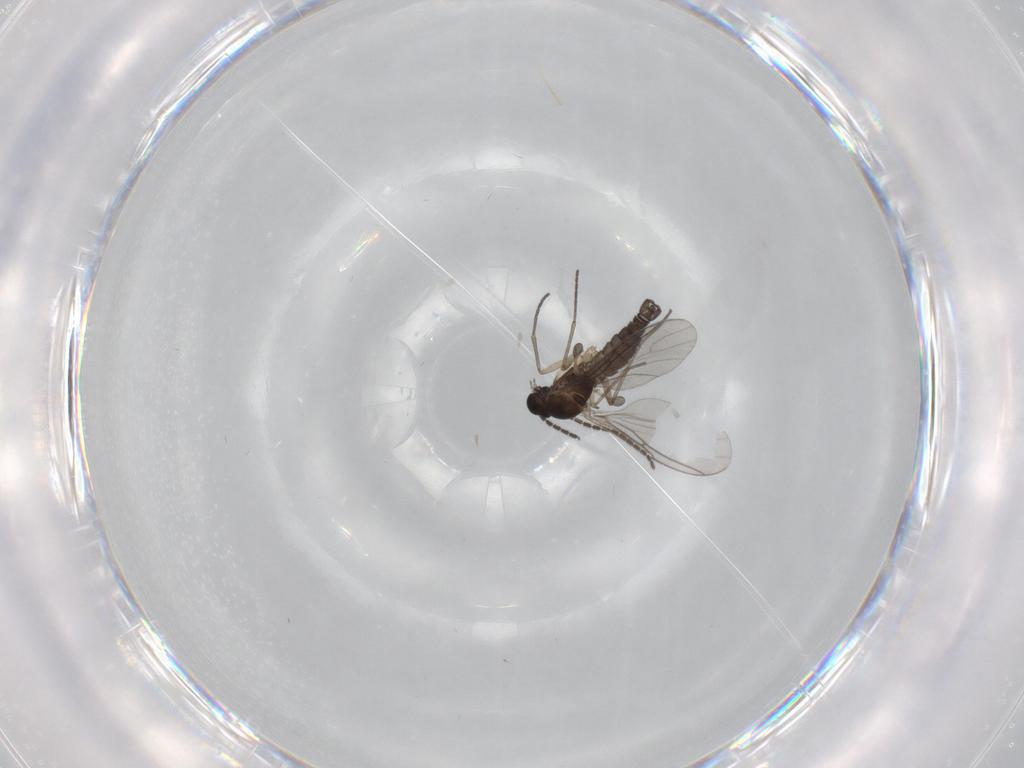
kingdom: Animalia
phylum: Arthropoda
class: Insecta
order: Diptera
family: Sciaridae
